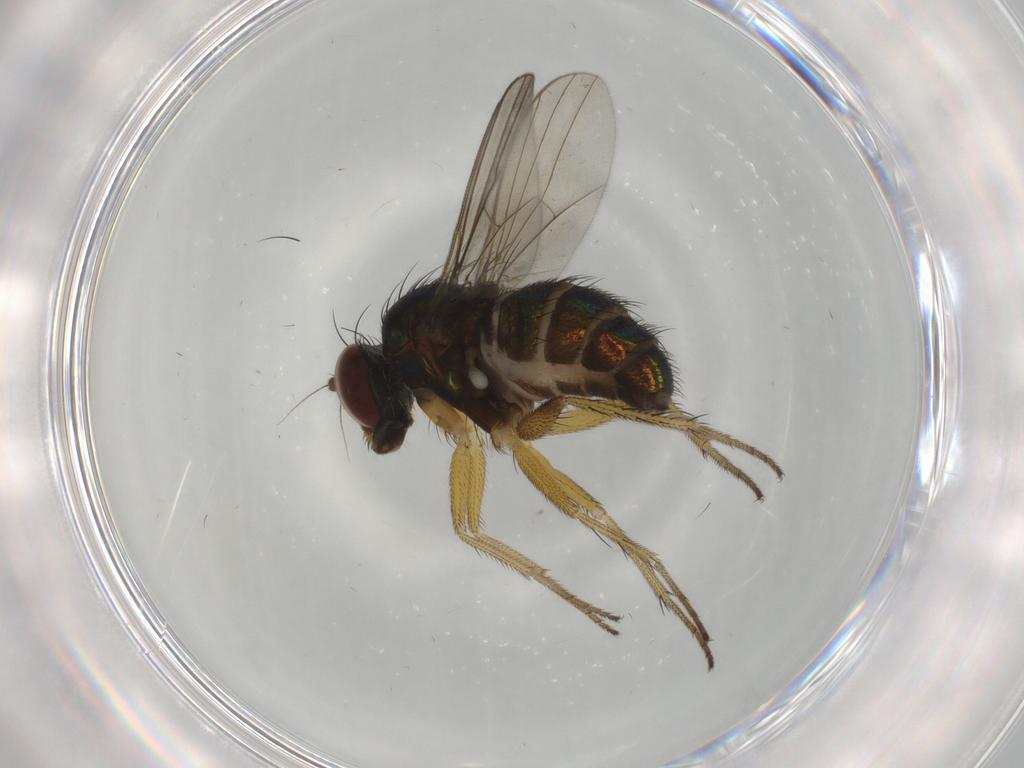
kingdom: Animalia
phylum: Arthropoda
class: Insecta
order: Diptera
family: Dolichopodidae
